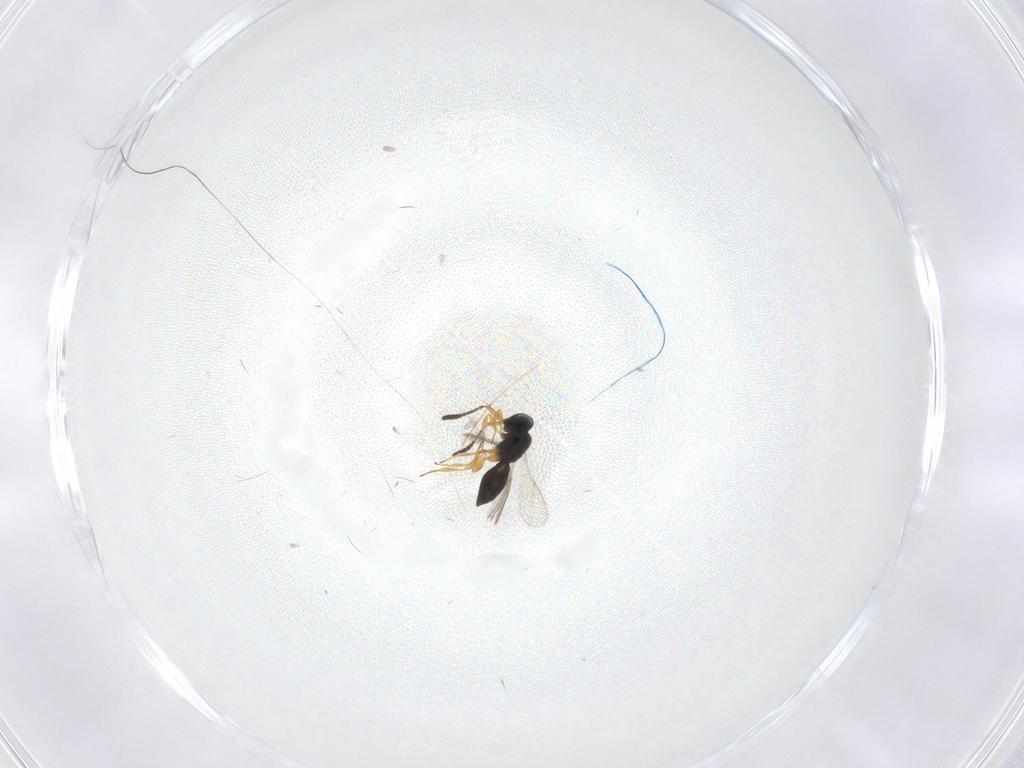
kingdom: Animalia
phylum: Arthropoda
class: Insecta
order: Hymenoptera
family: Scelionidae
